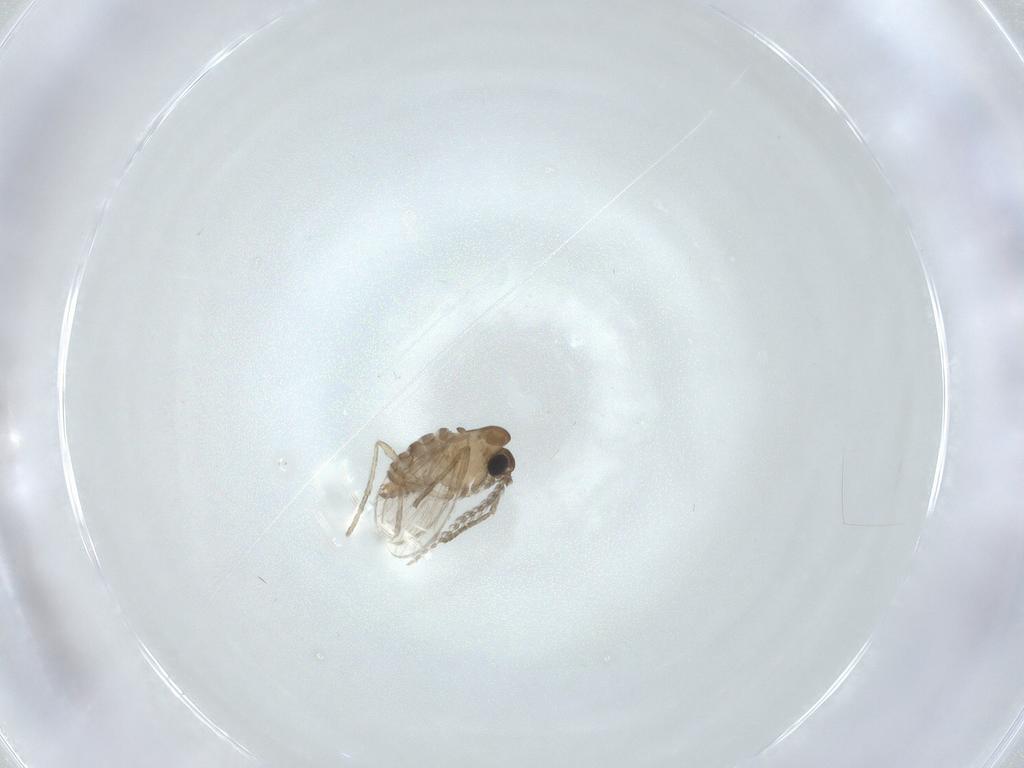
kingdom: Animalia
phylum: Arthropoda
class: Insecta
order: Diptera
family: Psychodidae
